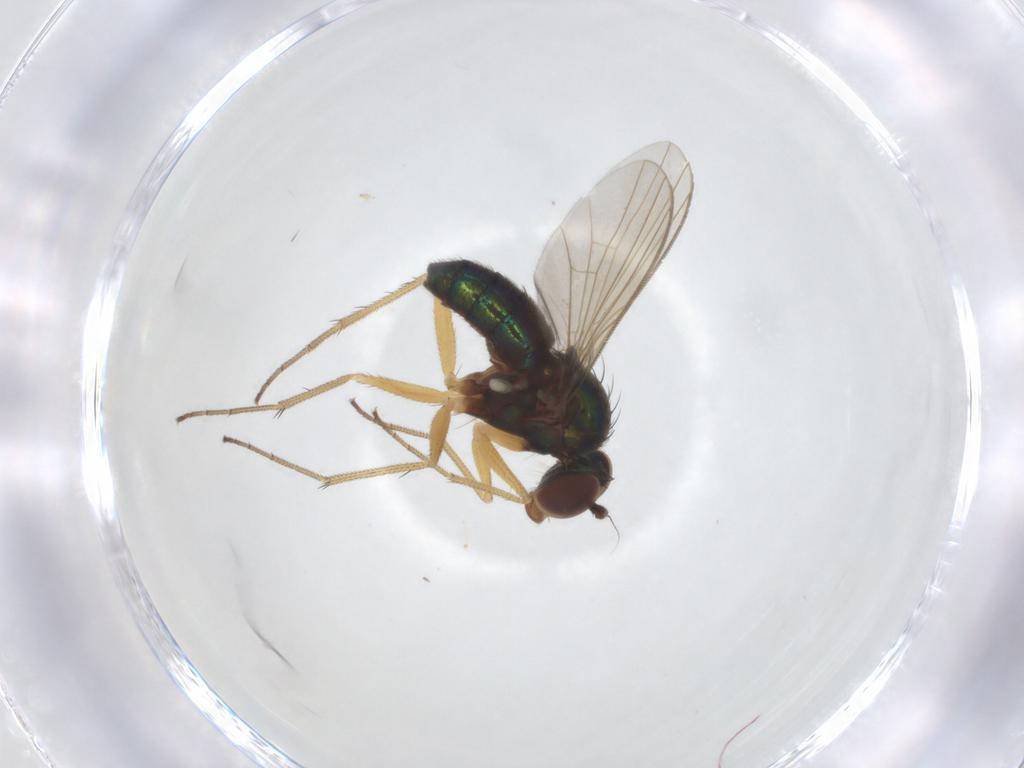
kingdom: Animalia
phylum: Arthropoda
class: Insecta
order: Diptera
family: Dolichopodidae
